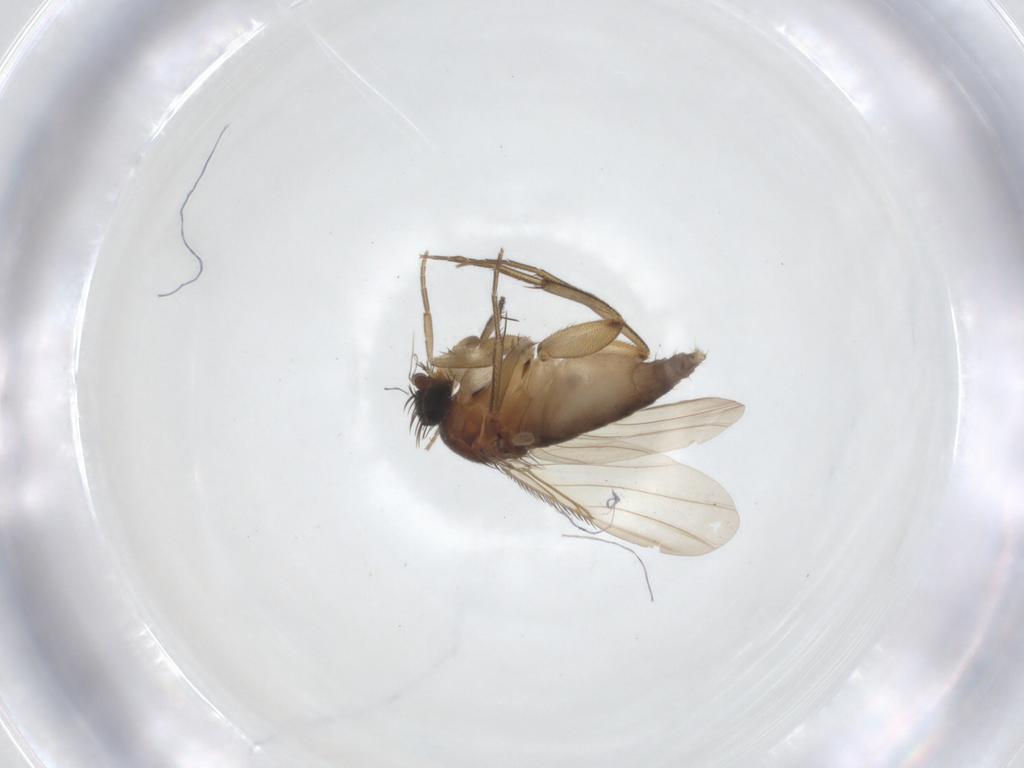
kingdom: Animalia
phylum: Arthropoda
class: Insecta
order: Diptera
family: Phoridae
